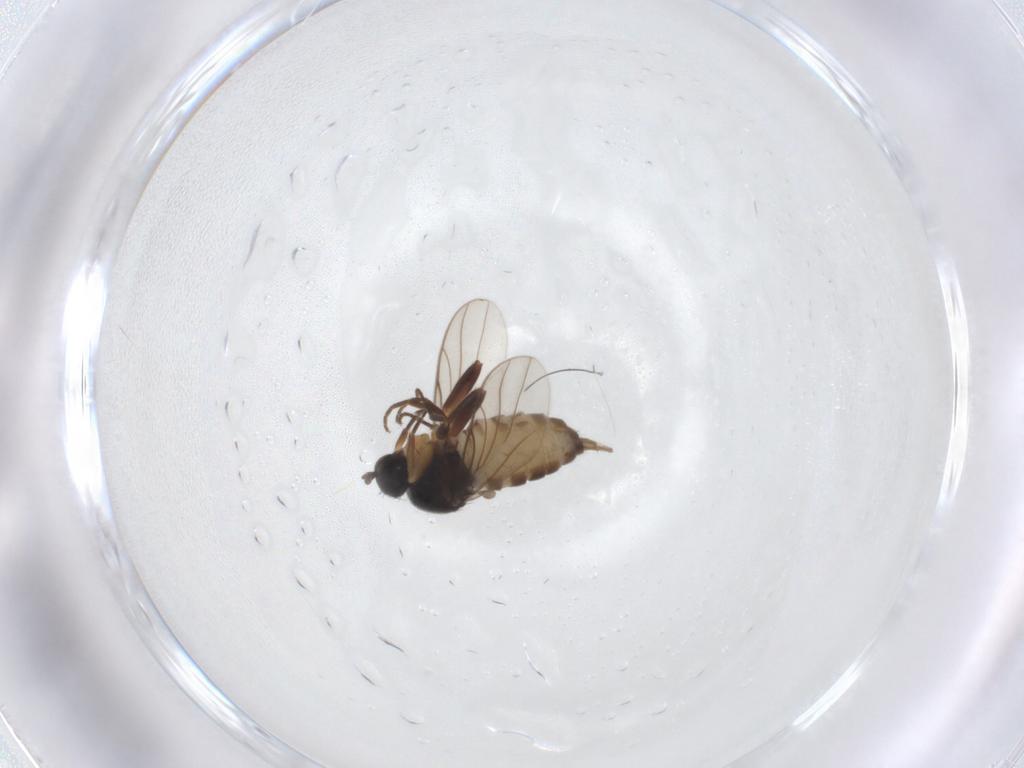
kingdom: Animalia
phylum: Arthropoda
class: Insecta
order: Diptera
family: Hybotidae
